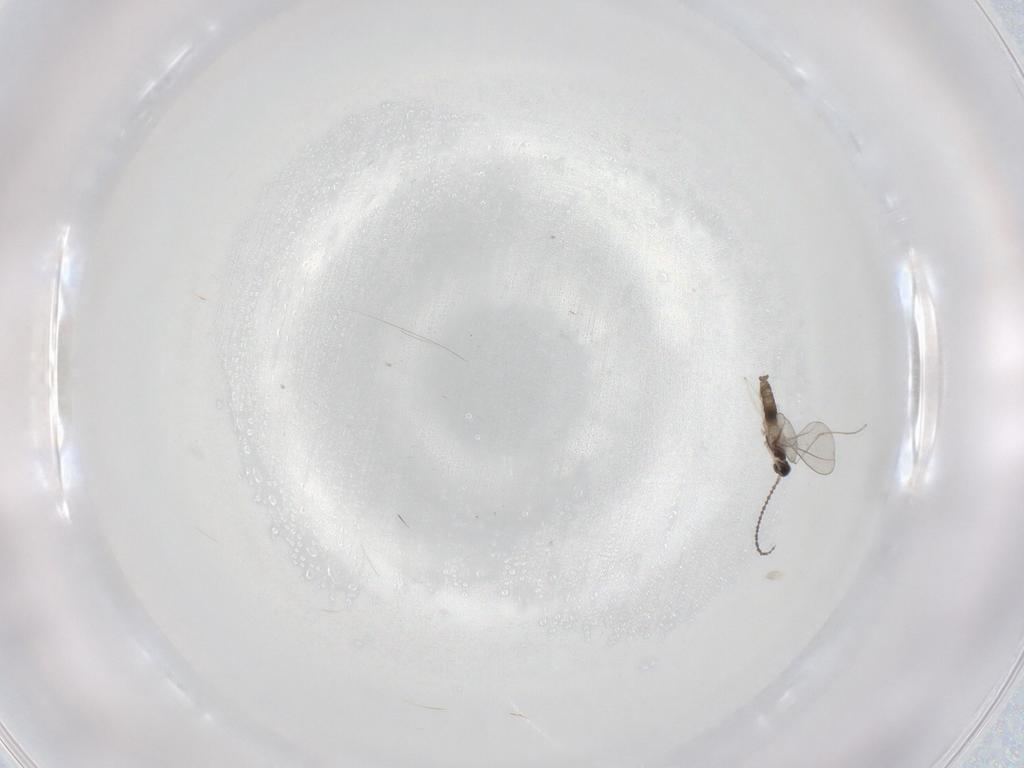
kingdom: Animalia
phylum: Arthropoda
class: Insecta
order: Diptera
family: Cecidomyiidae
